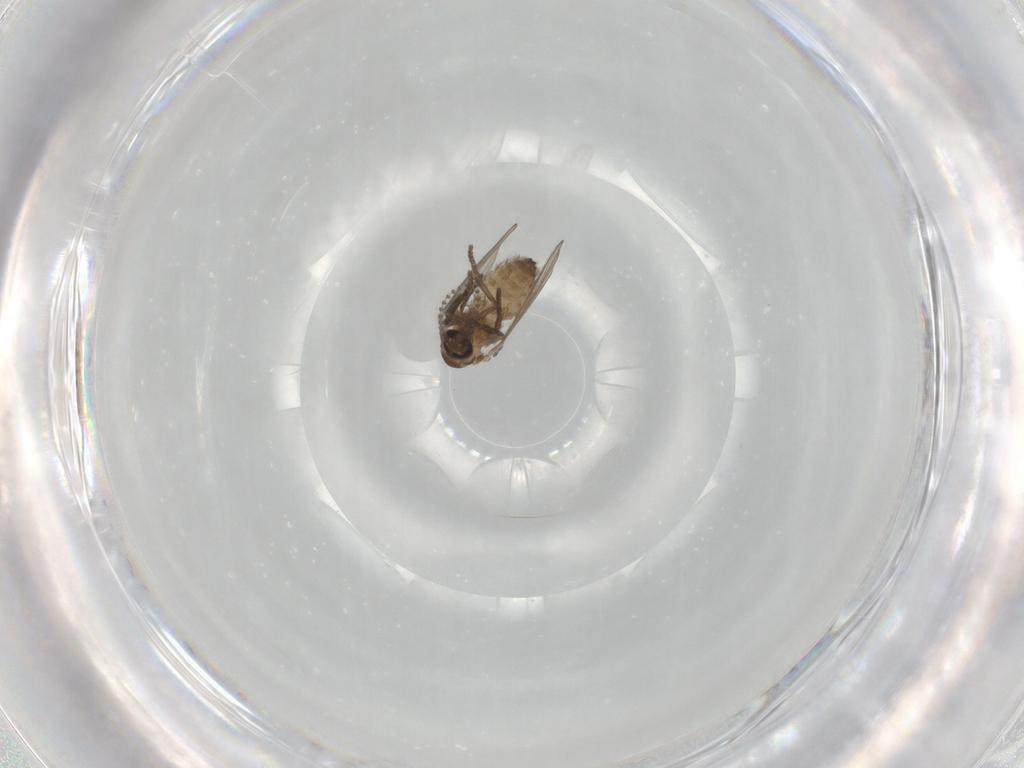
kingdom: Animalia
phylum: Arthropoda
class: Insecta
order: Diptera
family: Psychodidae
